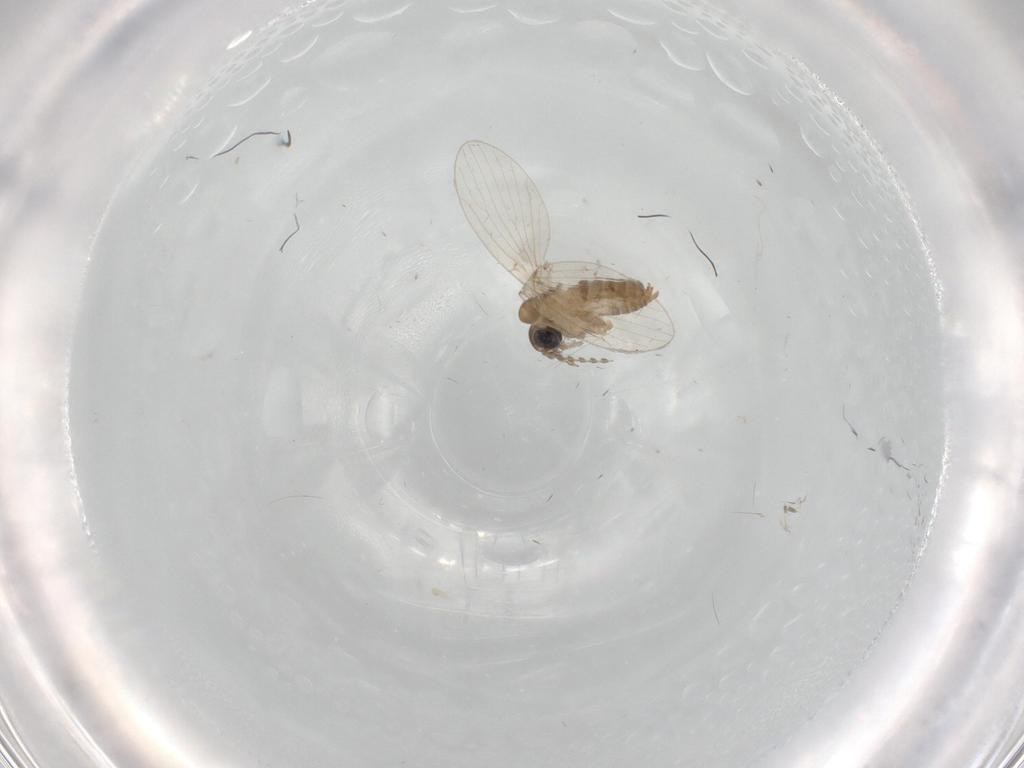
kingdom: Animalia
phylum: Arthropoda
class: Insecta
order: Diptera
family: Psychodidae
